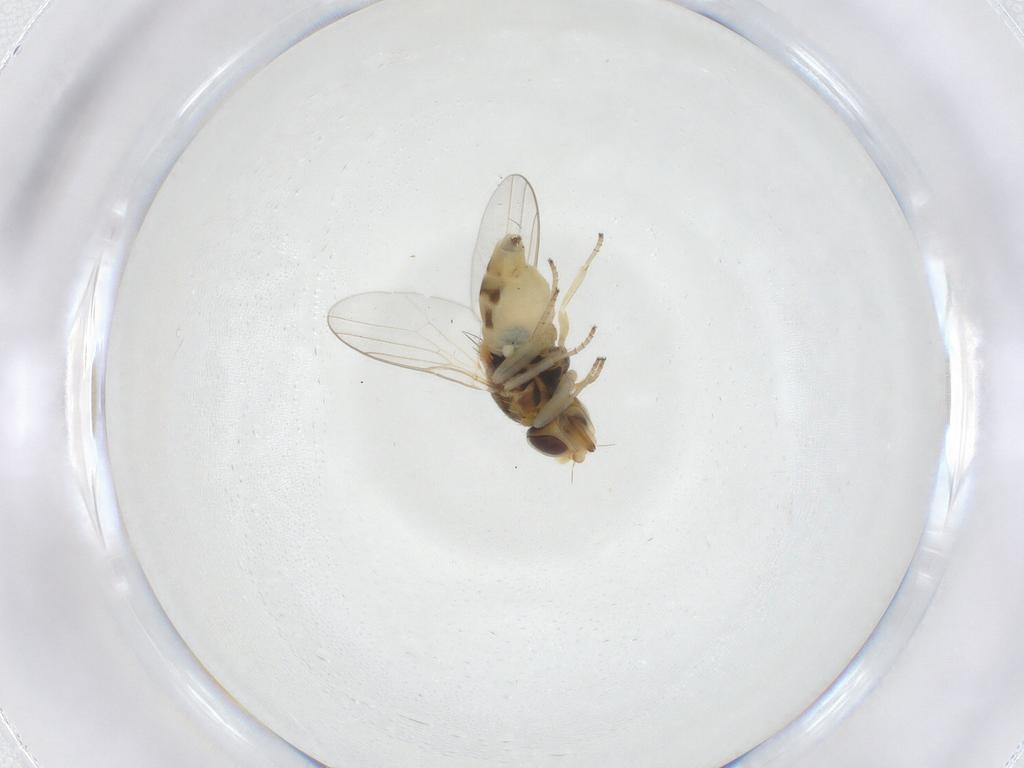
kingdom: Animalia
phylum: Arthropoda
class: Insecta
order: Diptera
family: Chloropidae
